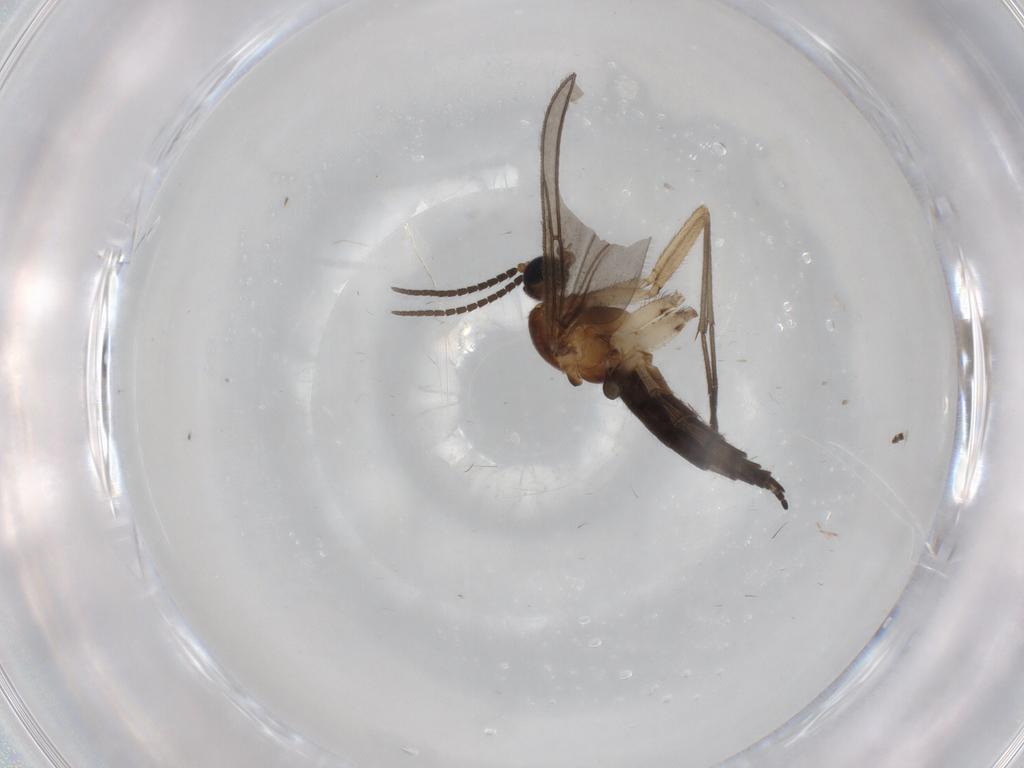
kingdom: Animalia
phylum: Arthropoda
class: Insecta
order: Diptera
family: Sciaridae
